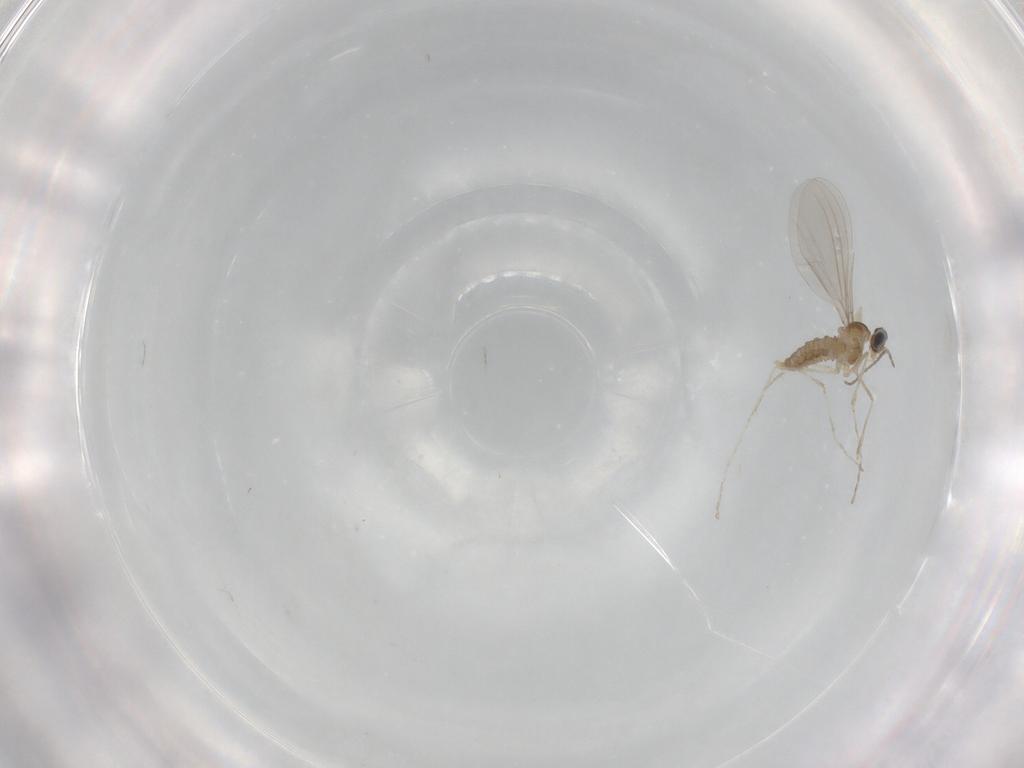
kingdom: Animalia
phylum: Arthropoda
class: Insecta
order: Diptera
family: Cecidomyiidae
